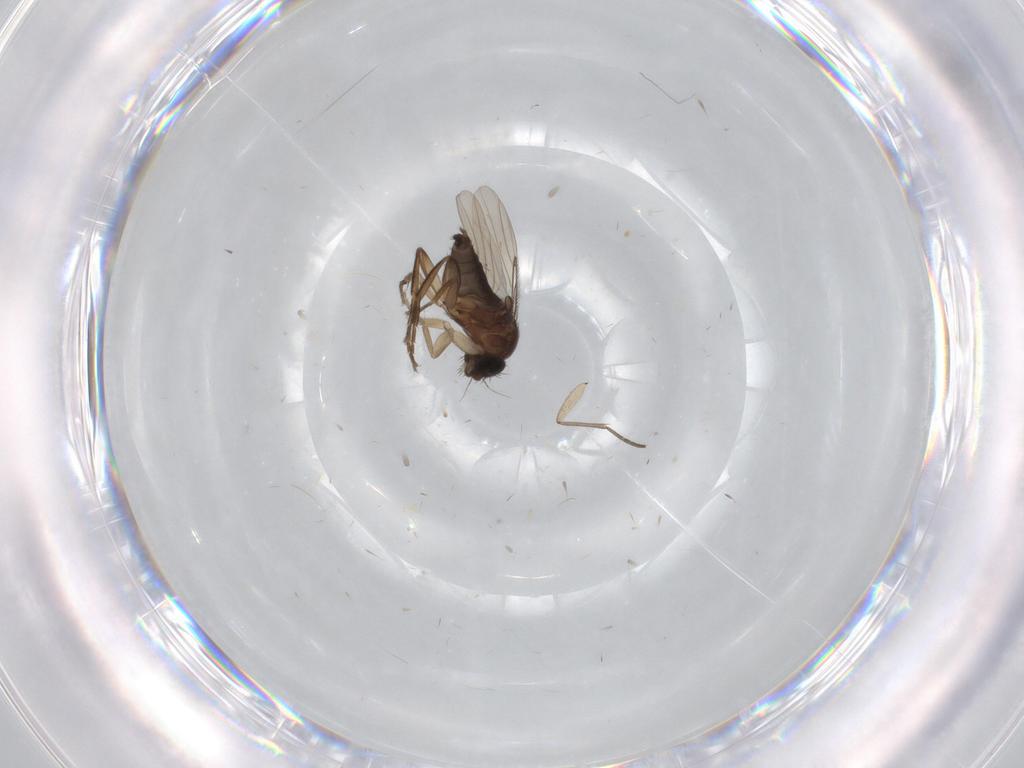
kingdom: Animalia
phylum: Arthropoda
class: Insecta
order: Diptera
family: Phoridae
